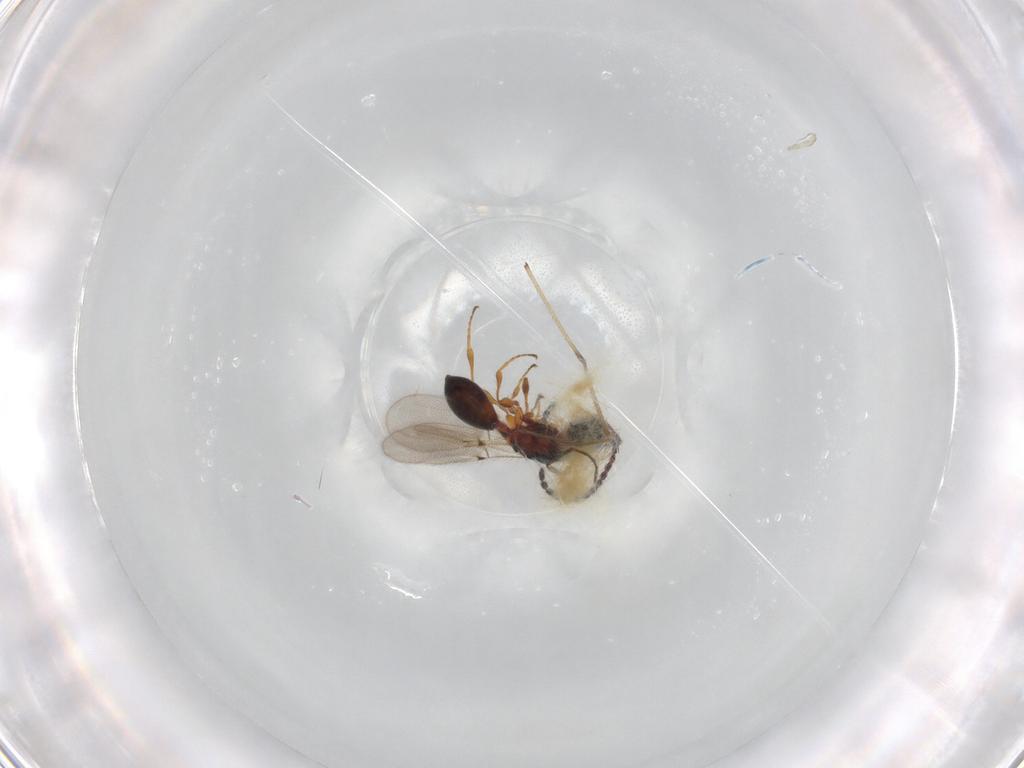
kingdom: Animalia
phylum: Arthropoda
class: Insecta
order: Hymenoptera
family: Diapriidae
